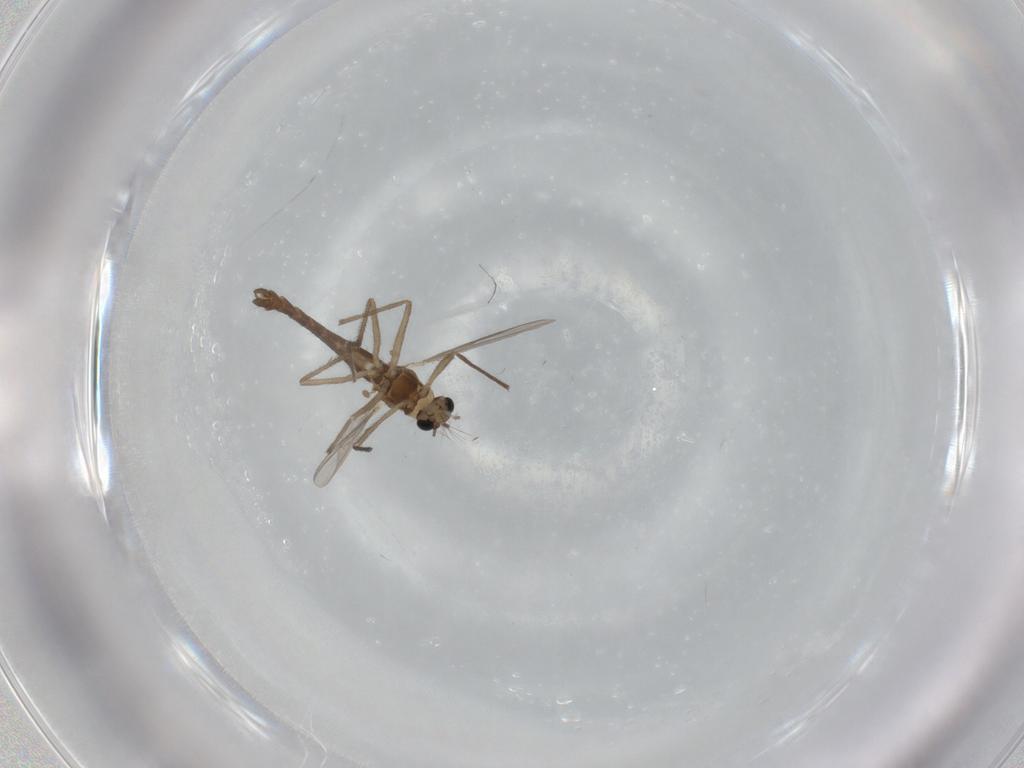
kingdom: Animalia
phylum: Arthropoda
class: Insecta
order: Diptera
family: Chironomidae
